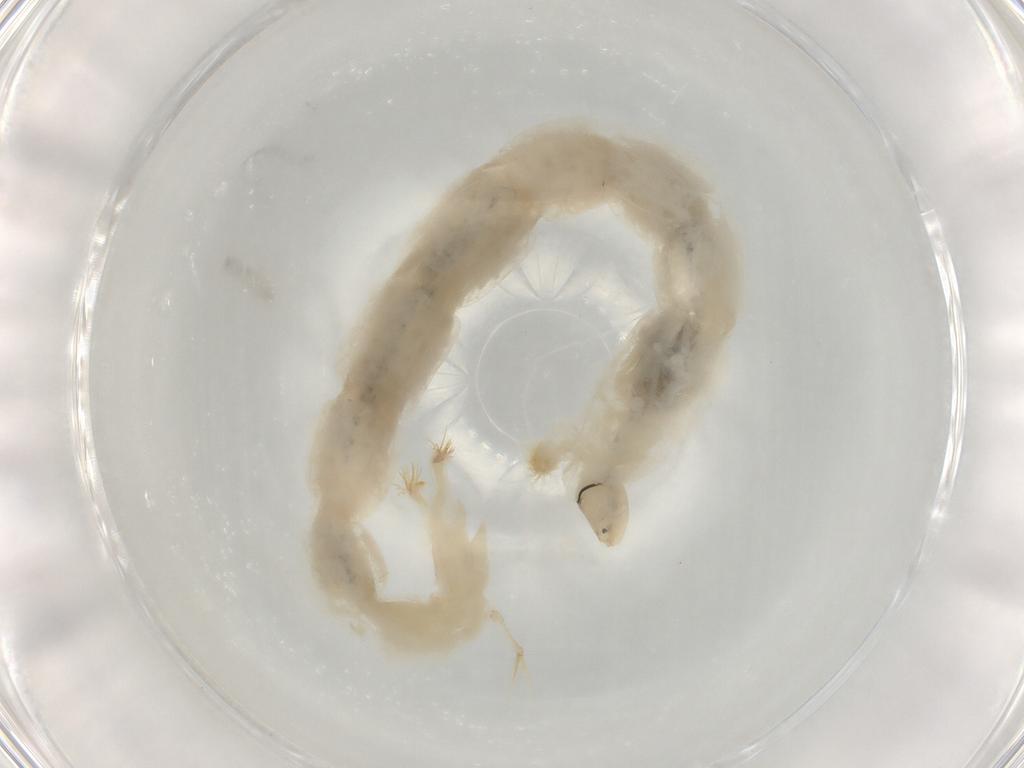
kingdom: Animalia
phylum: Arthropoda
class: Insecta
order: Diptera
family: Chironomidae
